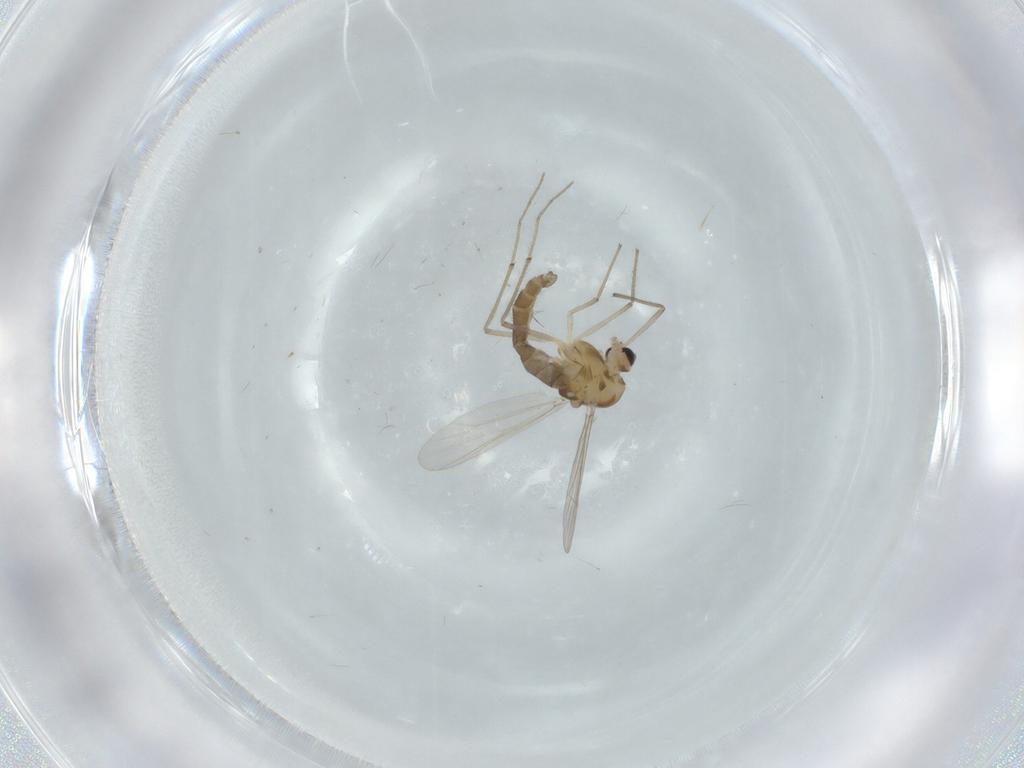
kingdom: Animalia
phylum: Arthropoda
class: Insecta
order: Diptera
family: Chironomidae
